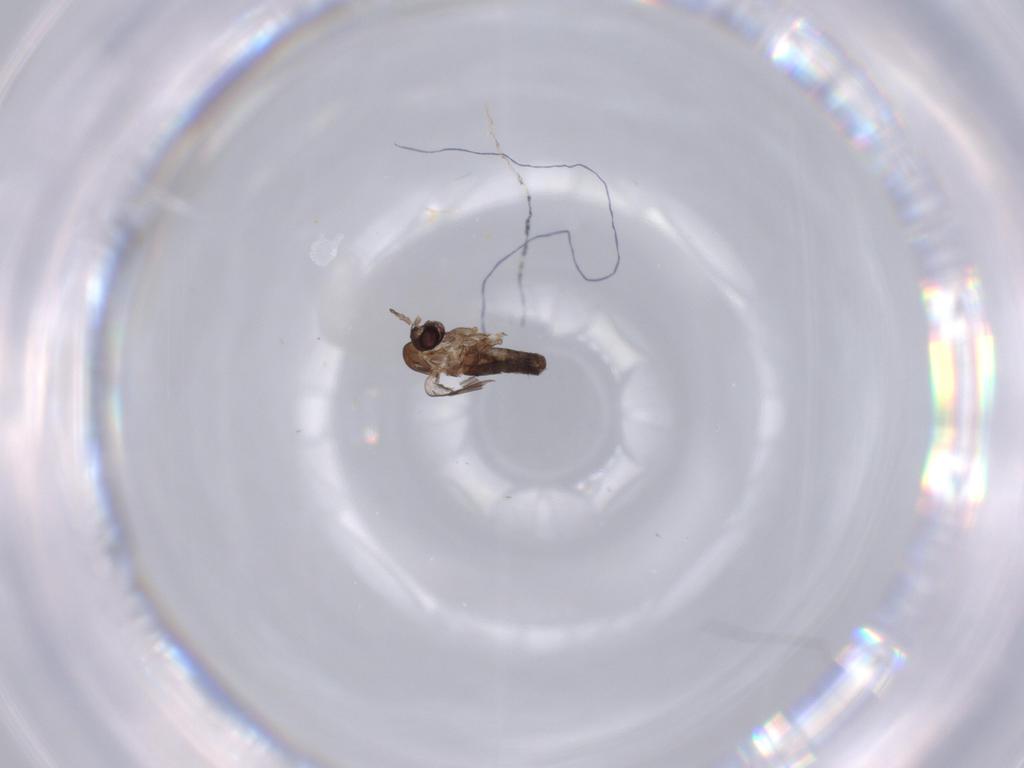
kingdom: Animalia
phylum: Arthropoda
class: Insecta
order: Diptera
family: Psychodidae
